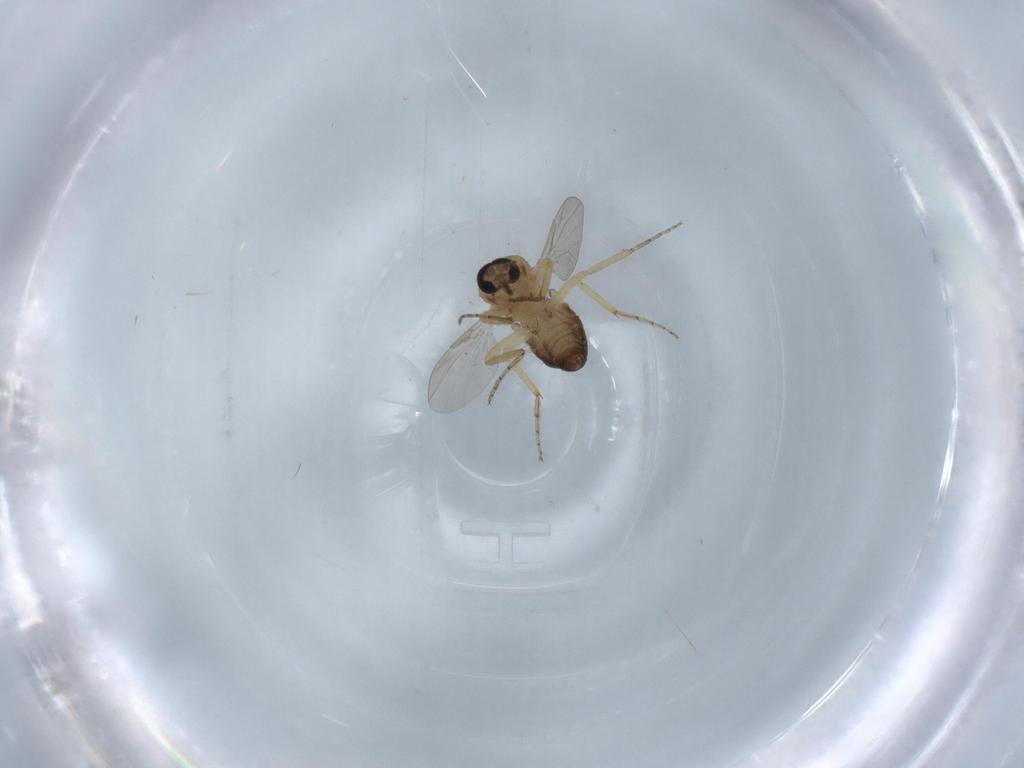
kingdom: Animalia
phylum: Arthropoda
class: Insecta
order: Diptera
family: Ceratopogonidae
